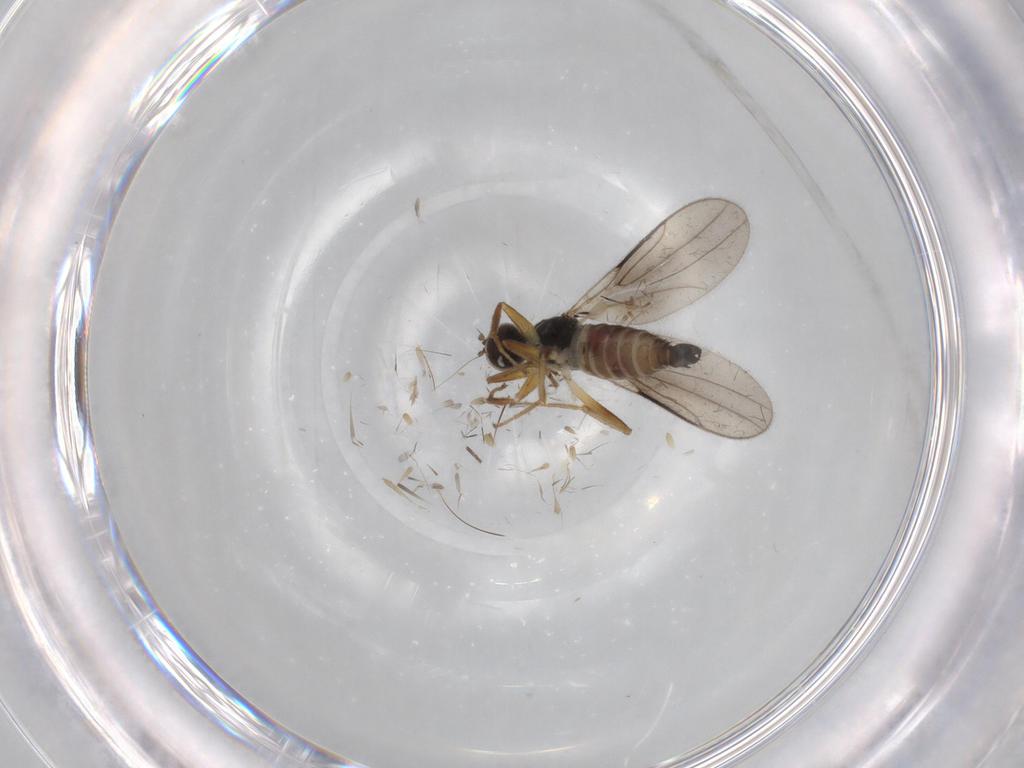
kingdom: Animalia
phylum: Arthropoda
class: Insecta
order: Diptera
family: Hybotidae
